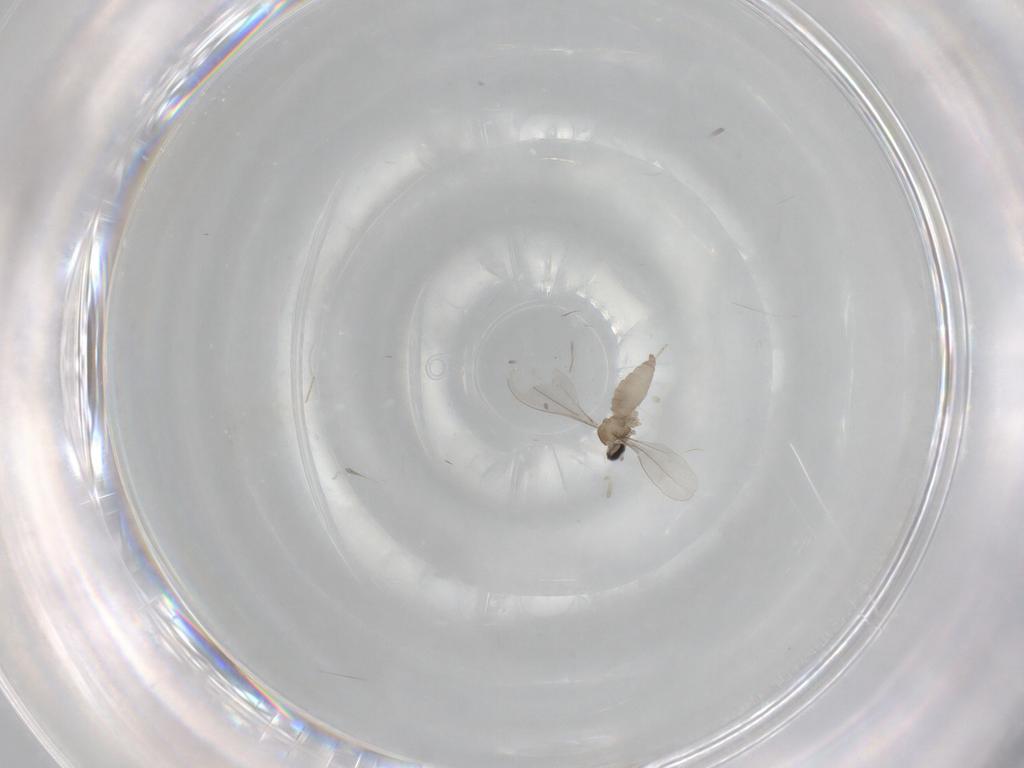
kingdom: Animalia
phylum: Arthropoda
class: Insecta
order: Diptera
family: Cecidomyiidae
